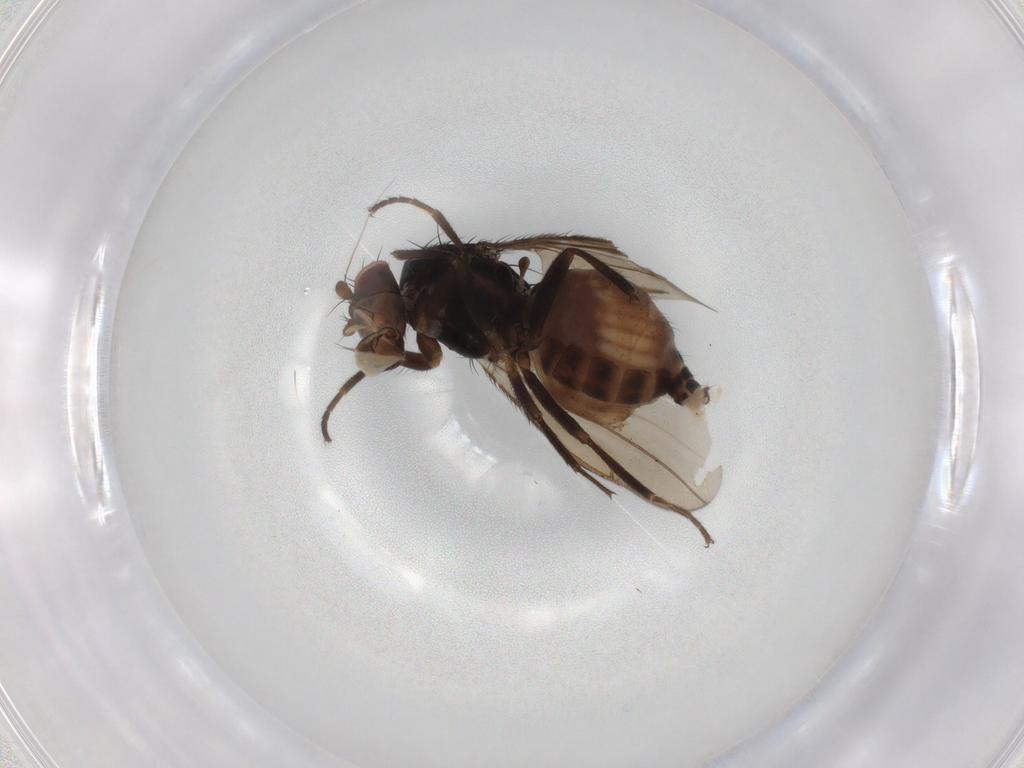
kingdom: Animalia
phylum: Arthropoda
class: Insecta
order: Diptera
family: Sphaeroceridae
